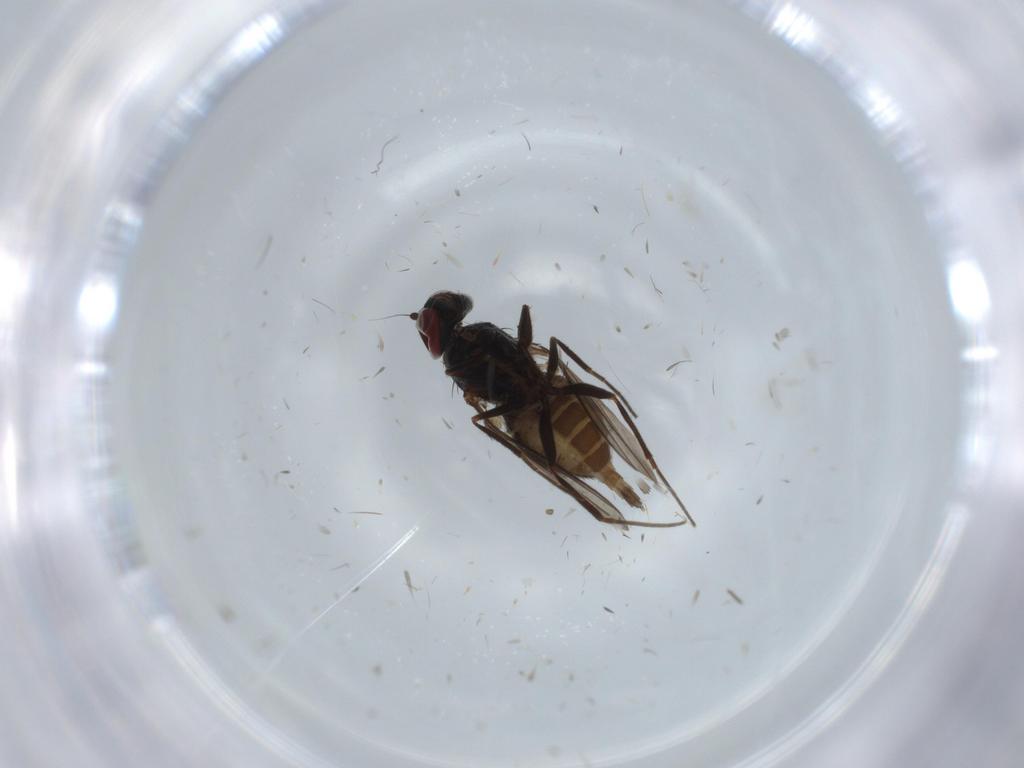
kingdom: Animalia
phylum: Arthropoda
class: Insecta
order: Diptera
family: Dolichopodidae
